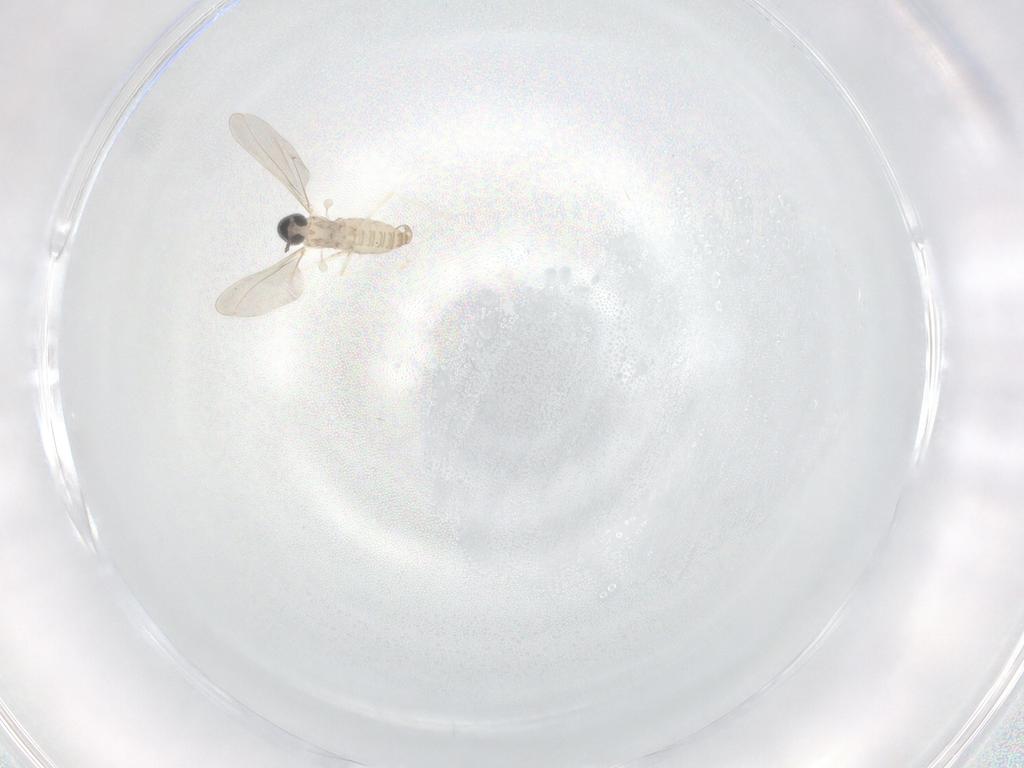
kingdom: Animalia
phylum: Arthropoda
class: Insecta
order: Diptera
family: Cecidomyiidae
